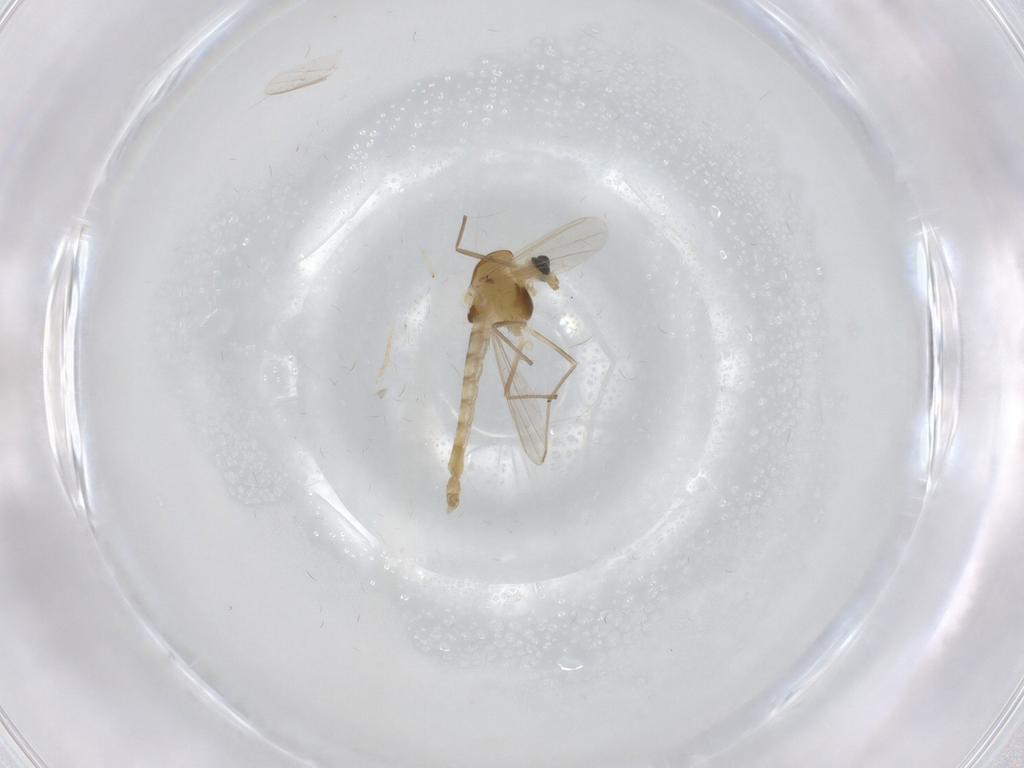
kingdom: Animalia
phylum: Arthropoda
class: Insecta
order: Diptera
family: Chironomidae
